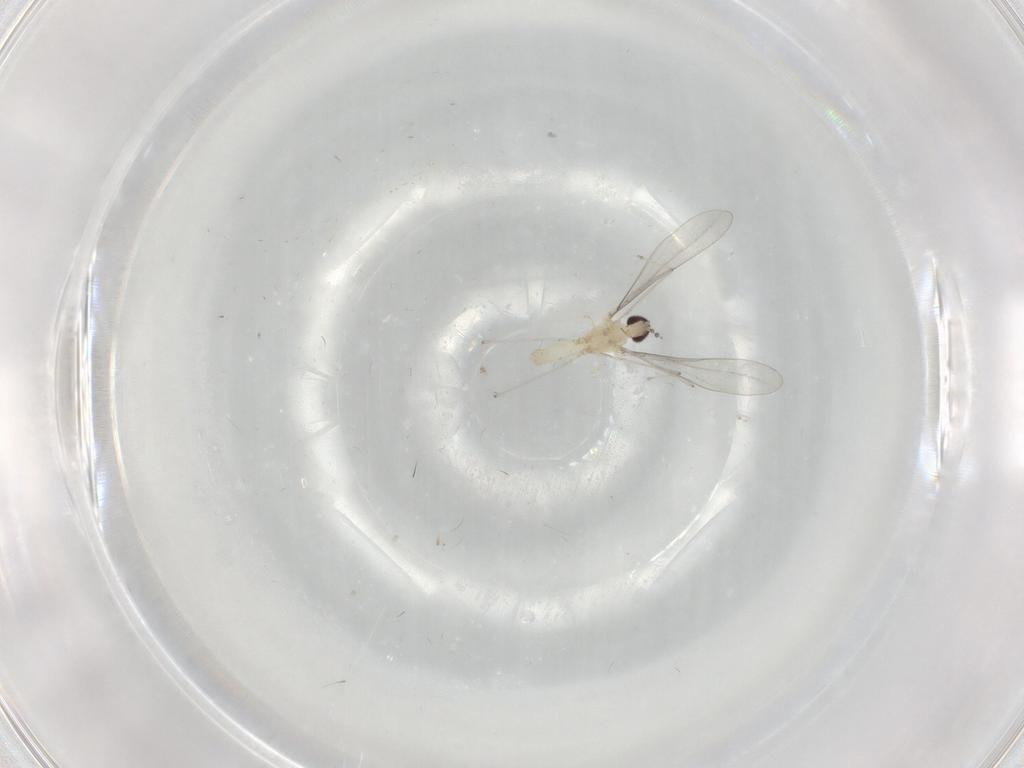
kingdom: Animalia
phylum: Arthropoda
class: Insecta
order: Diptera
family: Cecidomyiidae
